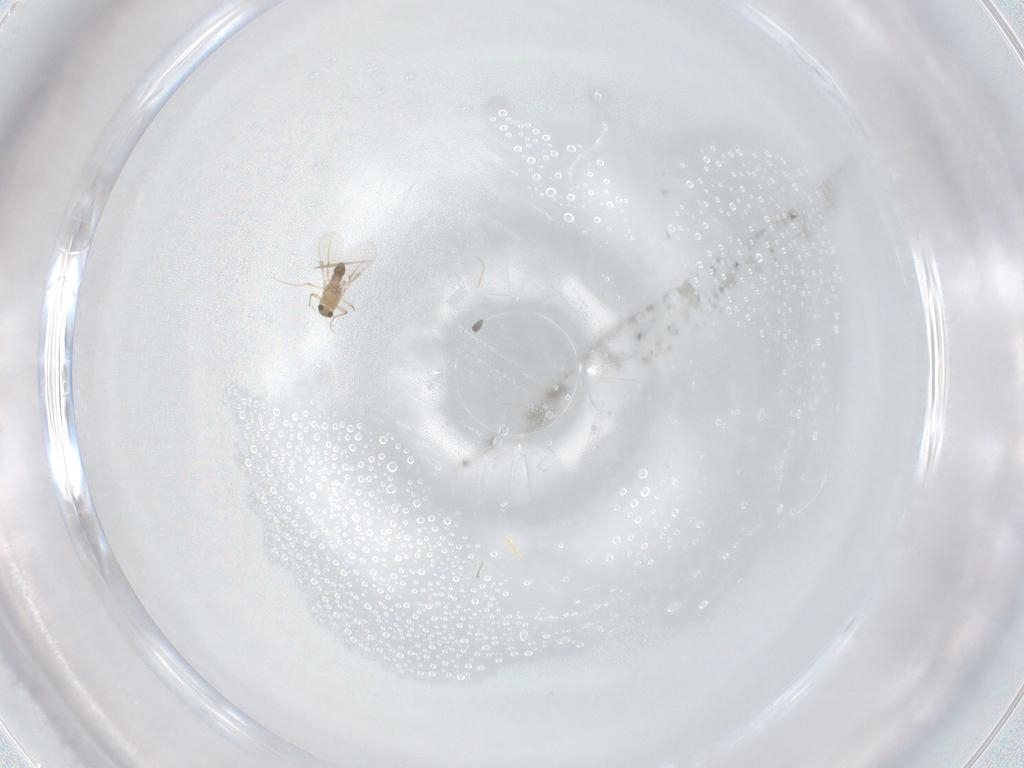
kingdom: Animalia
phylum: Arthropoda
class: Insecta
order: Diptera
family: Chironomidae
